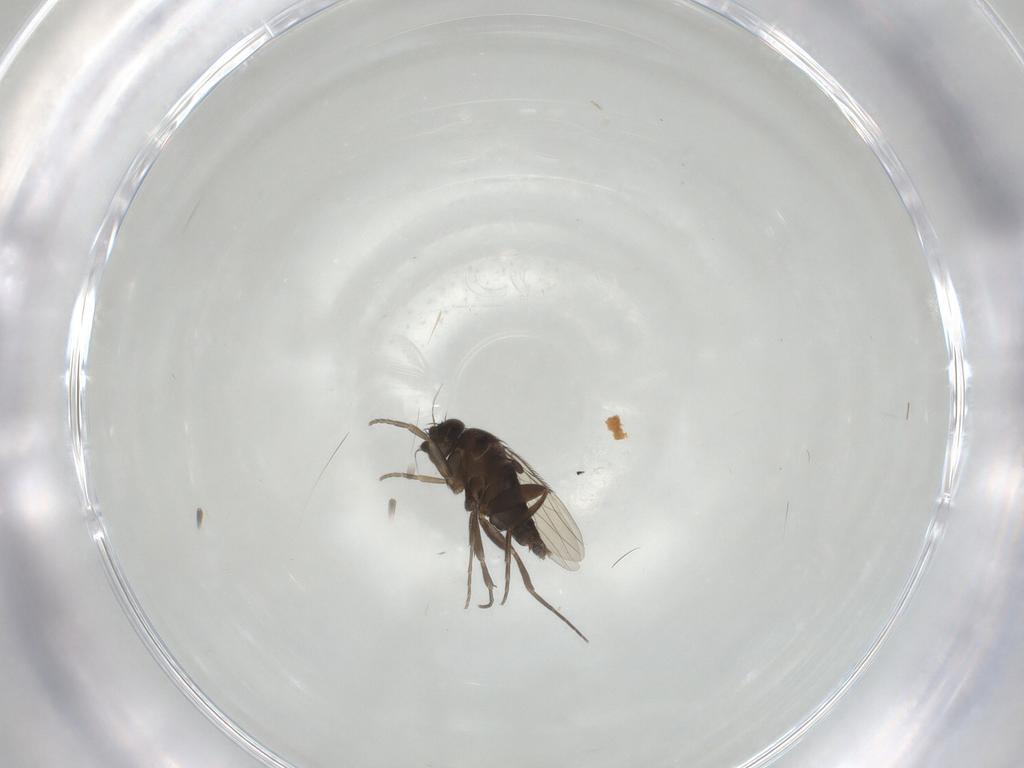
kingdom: Animalia
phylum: Arthropoda
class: Insecta
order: Diptera
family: Phoridae
